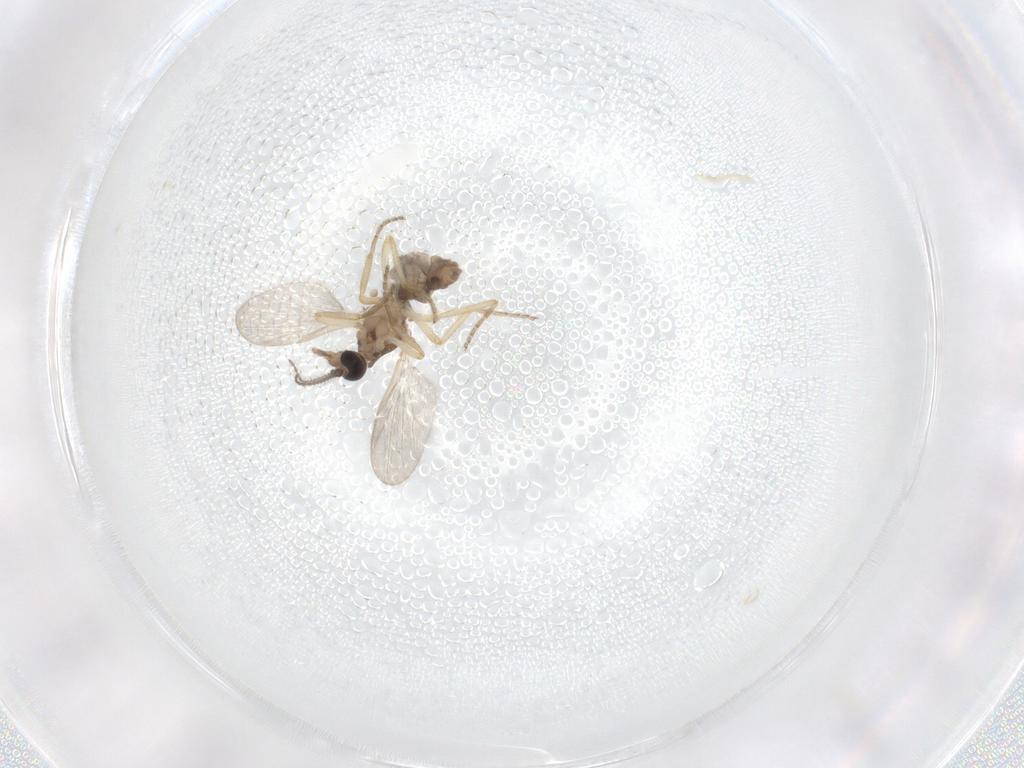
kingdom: Animalia
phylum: Arthropoda
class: Insecta
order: Diptera
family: Ceratopogonidae
